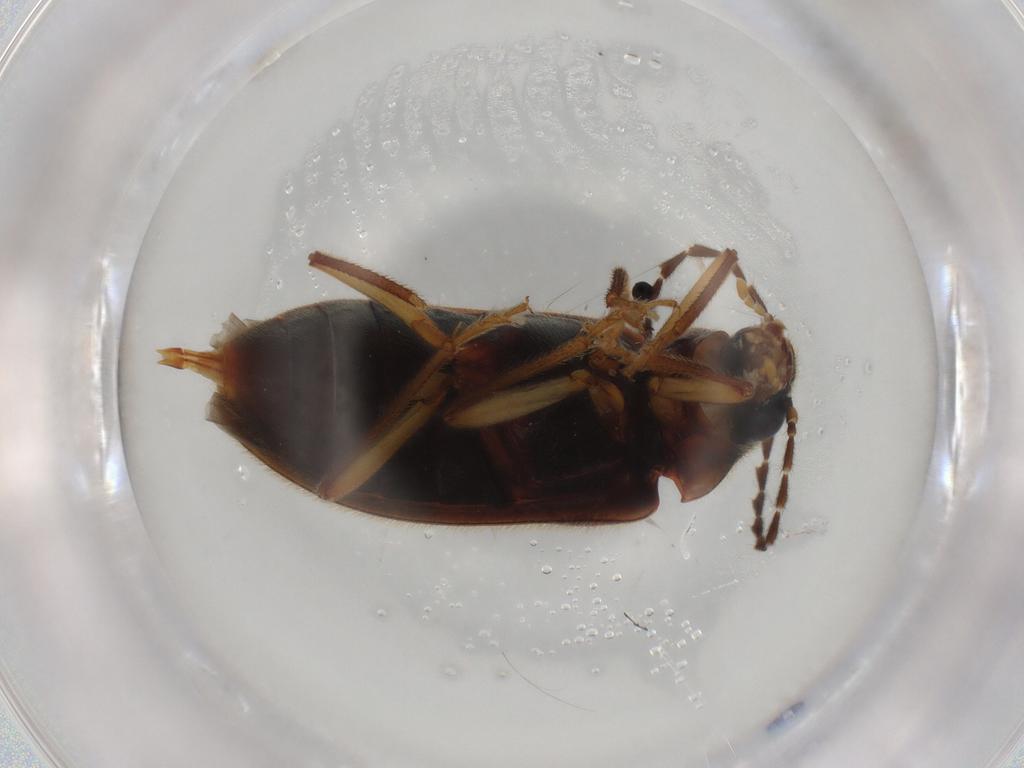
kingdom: Animalia
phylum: Arthropoda
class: Insecta
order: Coleoptera
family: Ptilodactylidae
